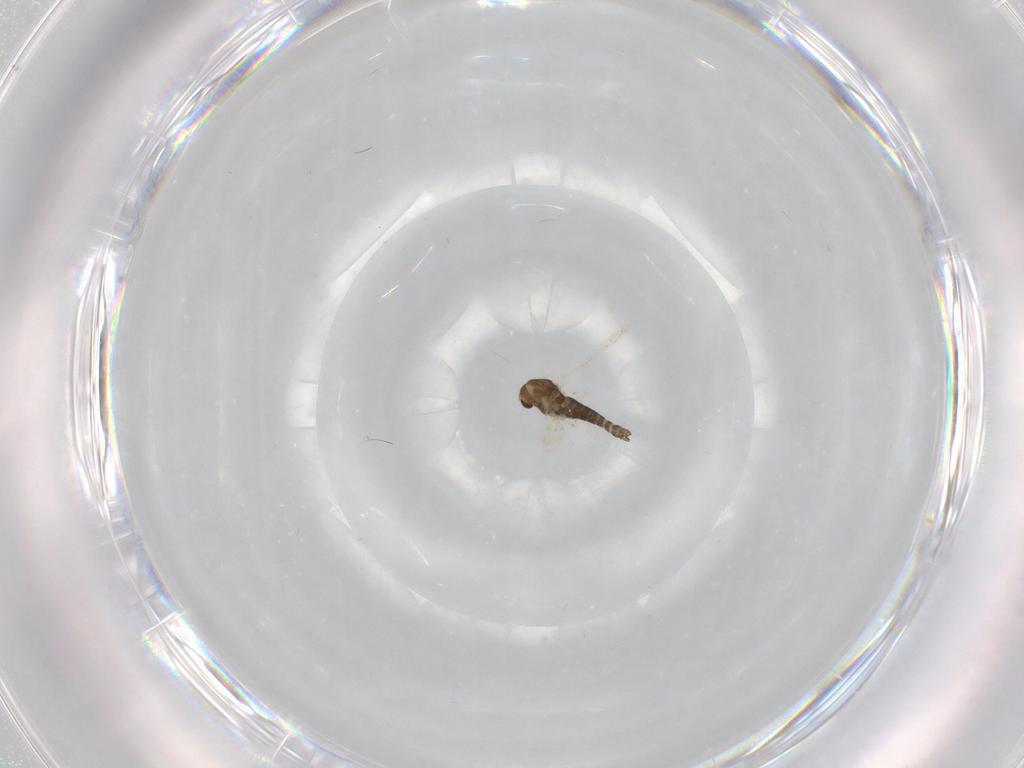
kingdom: Animalia
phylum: Arthropoda
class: Insecta
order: Diptera
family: Chironomidae
